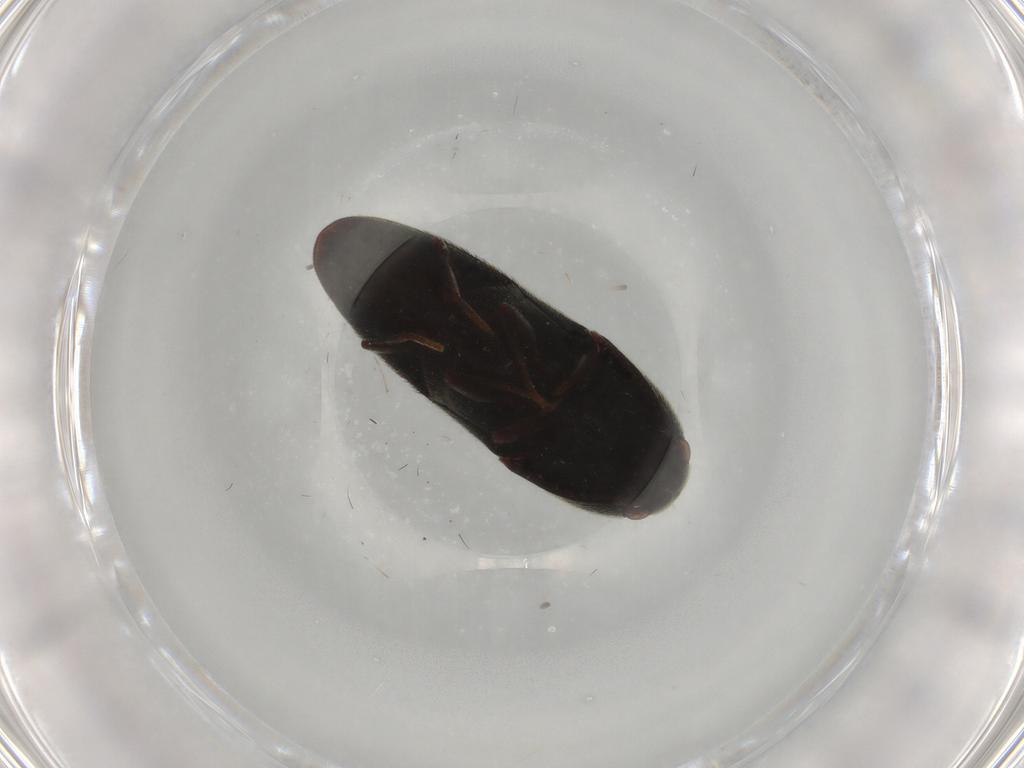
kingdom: Animalia
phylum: Arthropoda
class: Insecta
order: Coleoptera
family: Eucnemidae
